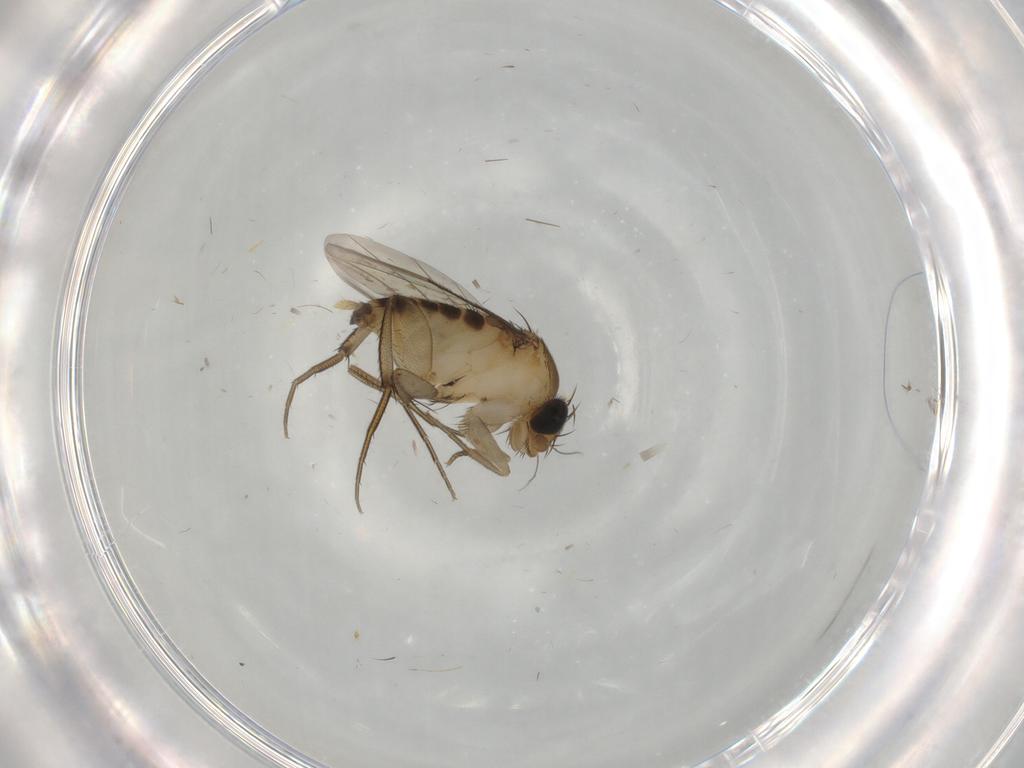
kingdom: Animalia
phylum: Arthropoda
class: Insecta
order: Diptera
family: Phoridae
